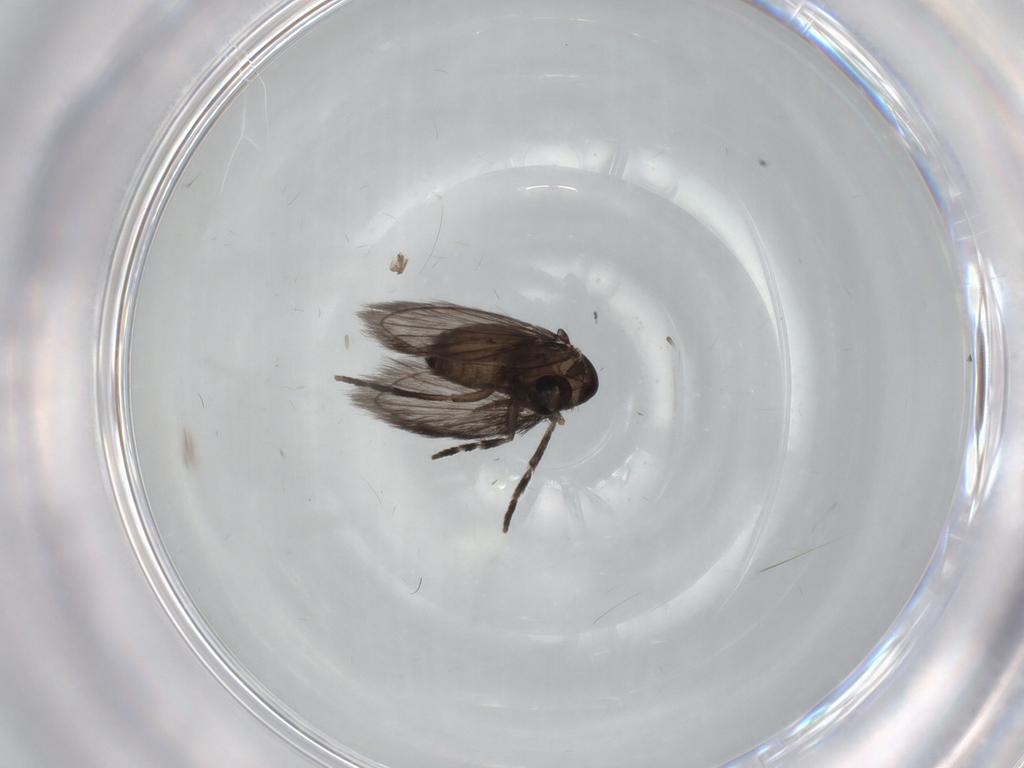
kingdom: Animalia
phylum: Arthropoda
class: Insecta
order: Diptera
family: Psychodidae
